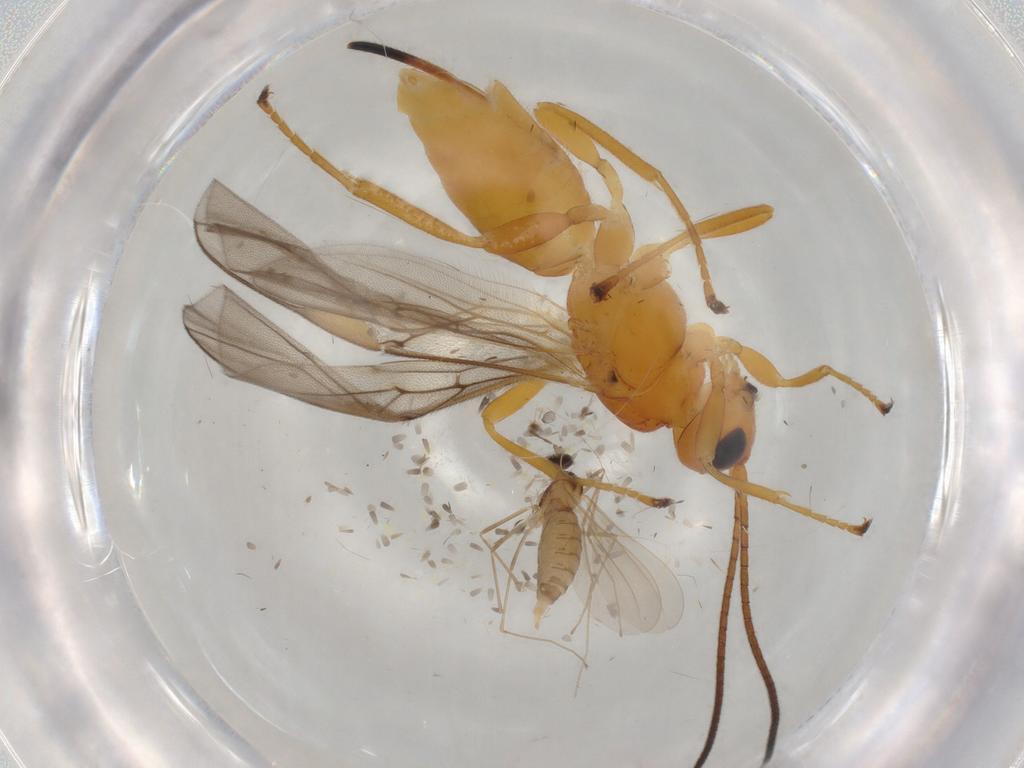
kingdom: Animalia
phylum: Arthropoda
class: Insecta
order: Hymenoptera
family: Braconidae
